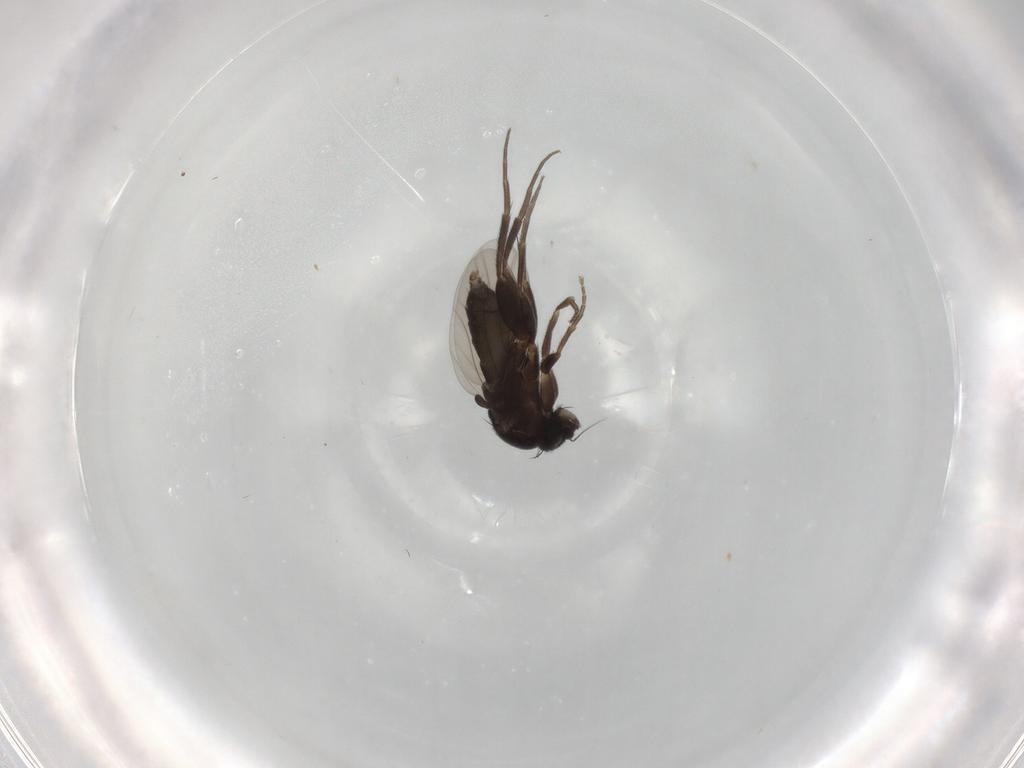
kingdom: Animalia
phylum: Arthropoda
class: Insecta
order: Diptera
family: Phoridae
